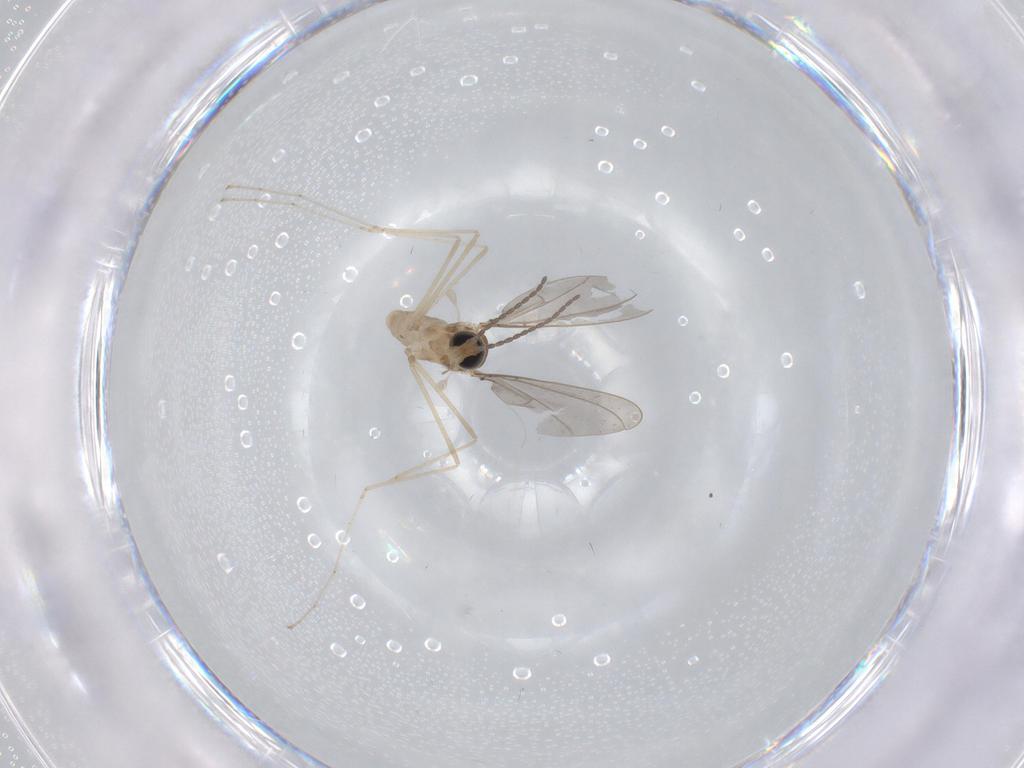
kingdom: Animalia
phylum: Arthropoda
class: Insecta
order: Diptera
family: Cecidomyiidae
